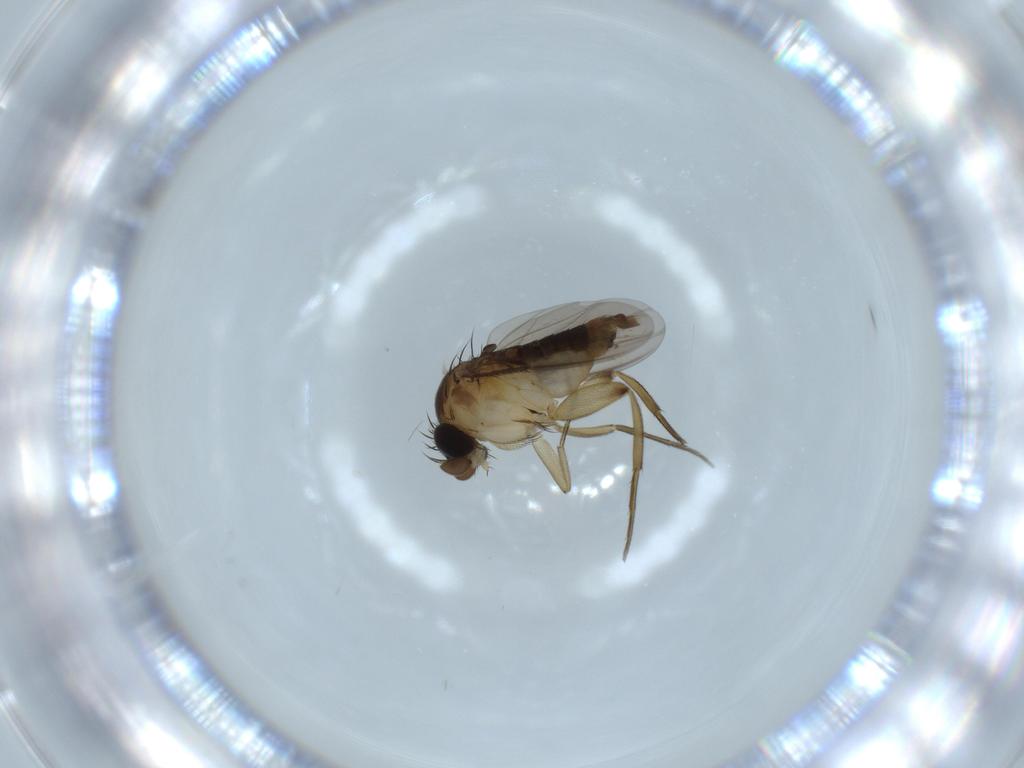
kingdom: Animalia
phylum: Arthropoda
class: Insecta
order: Diptera
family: Phoridae
